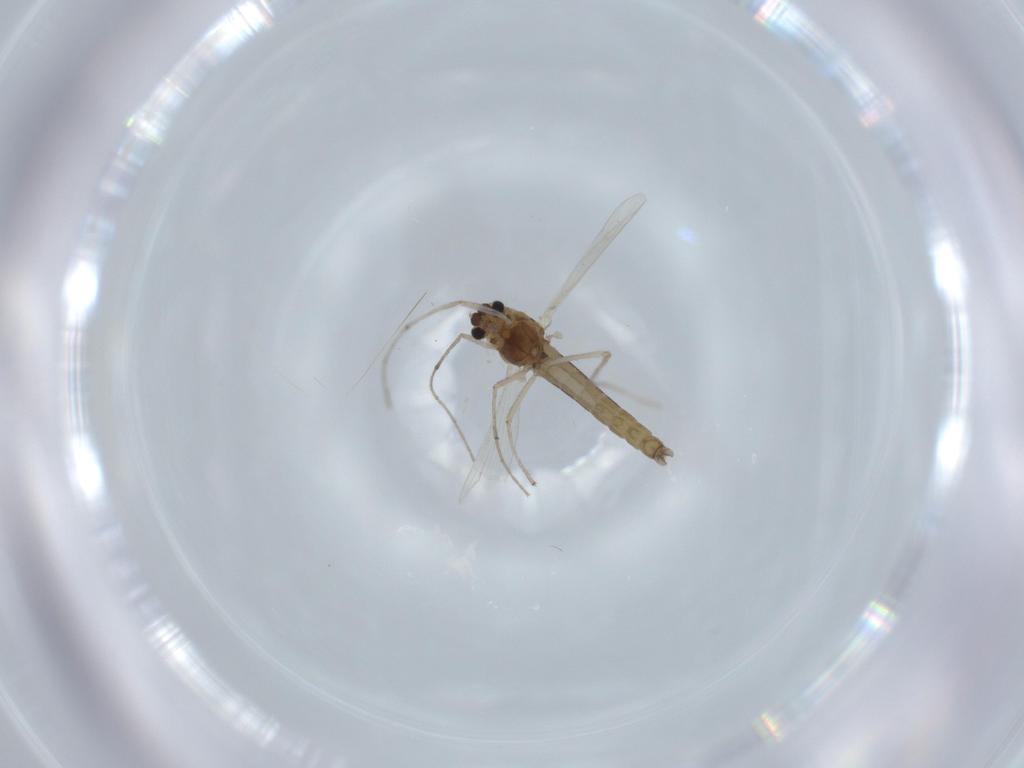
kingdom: Animalia
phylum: Arthropoda
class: Insecta
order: Diptera
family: Chironomidae
